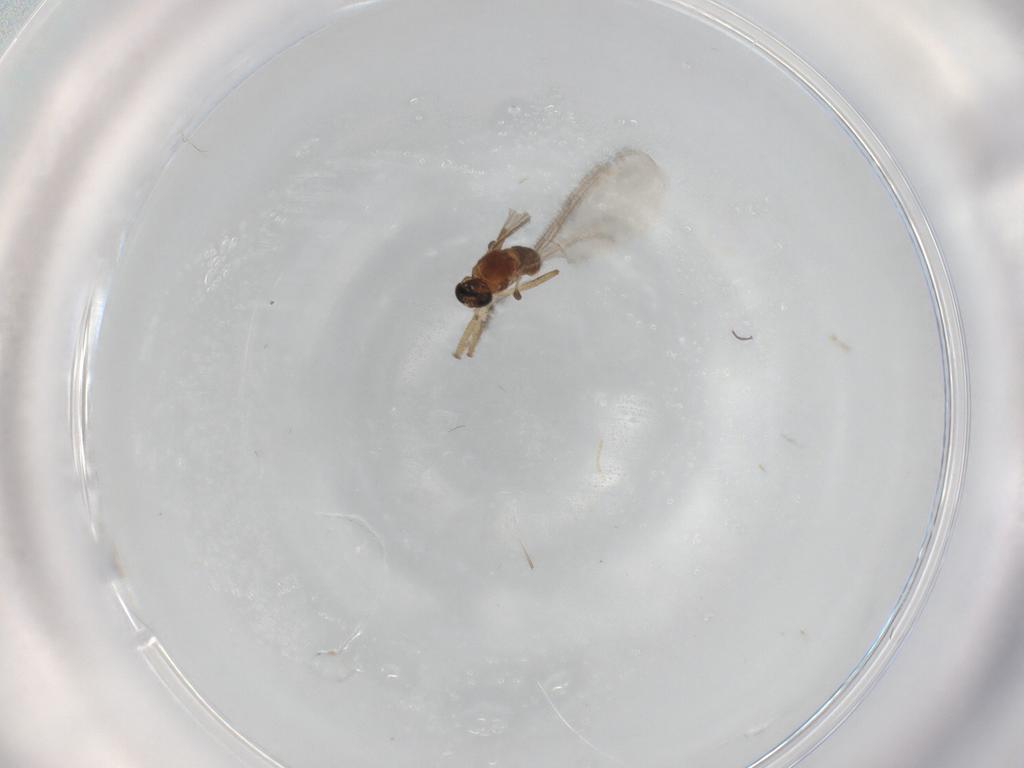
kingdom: Animalia
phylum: Arthropoda
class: Insecta
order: Diptera
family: Sciaridae
